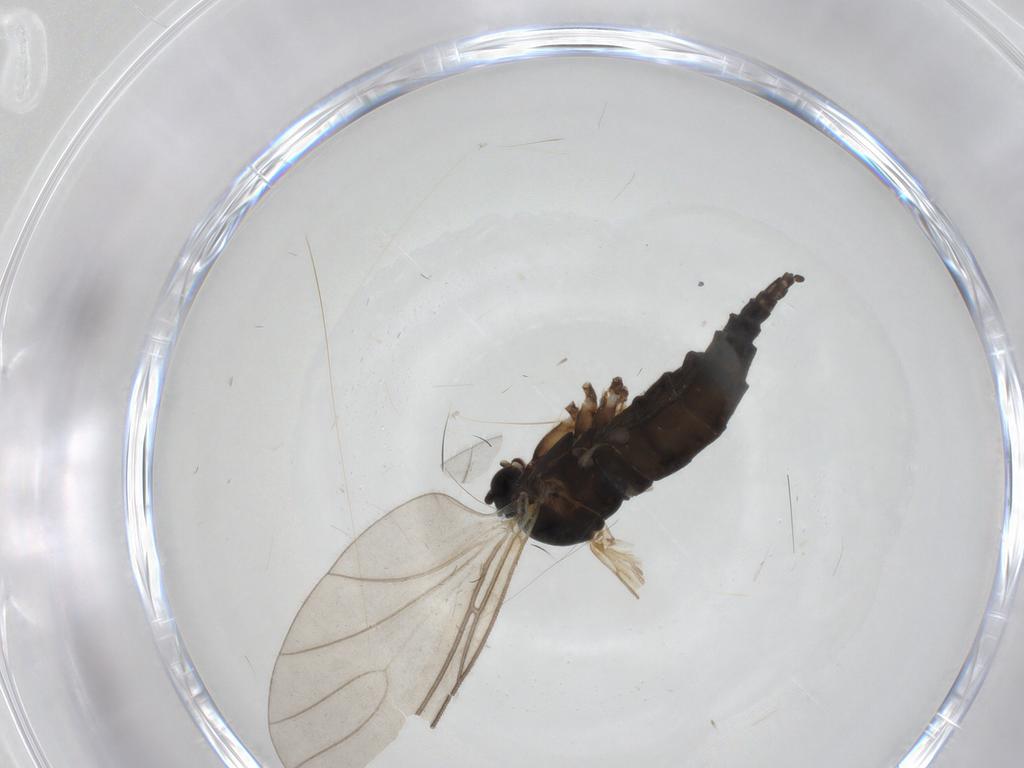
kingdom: Animalia
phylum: Arthropoda
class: Insecta
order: Diptera
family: Sciaridae
